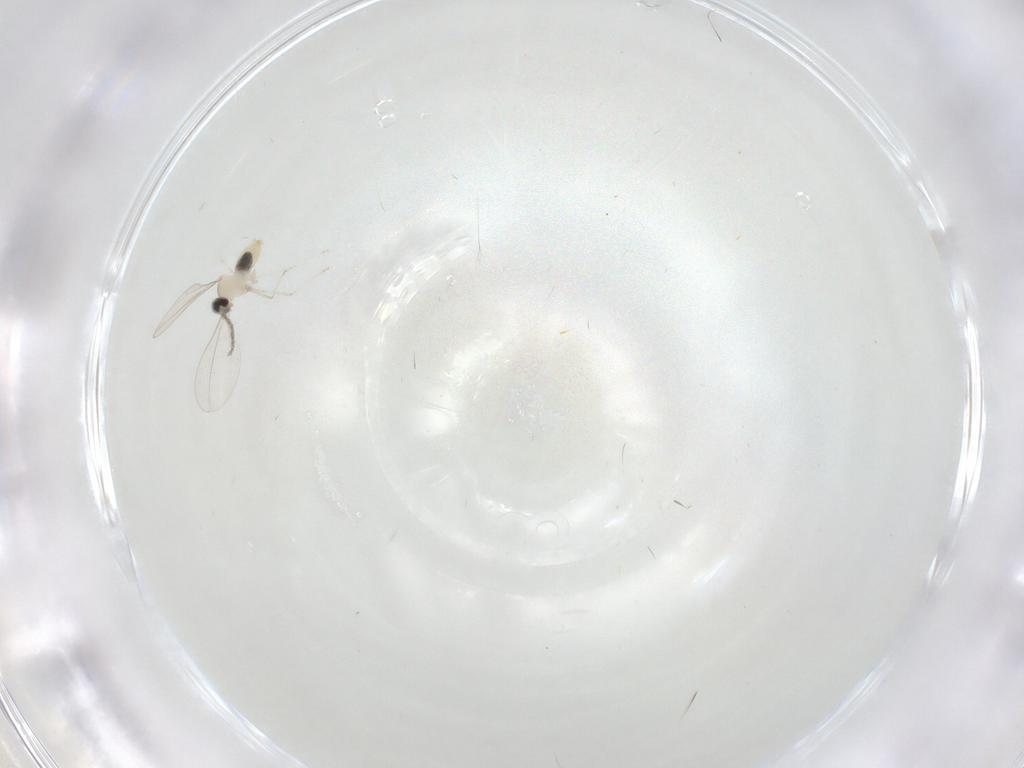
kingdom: Animalia
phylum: Arthropoda
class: Insecta
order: Diptera
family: Cecidomyiidae
